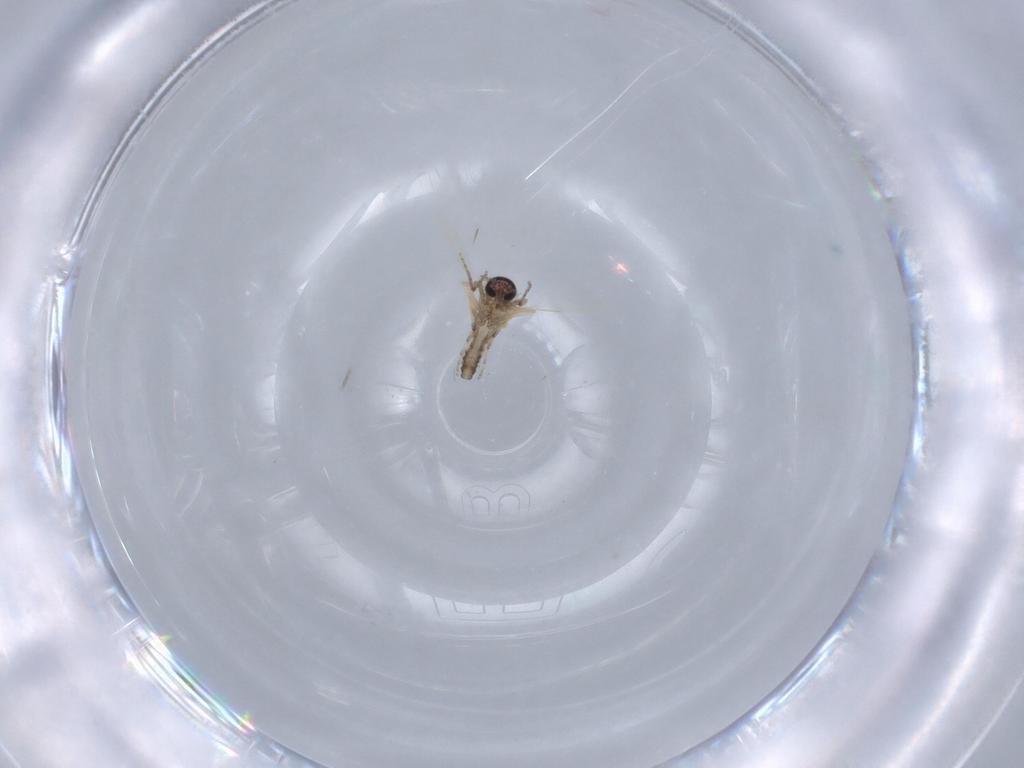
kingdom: Animalia
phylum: Arthropoda
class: Insecta
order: Diptera
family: Ceratopogonidae
